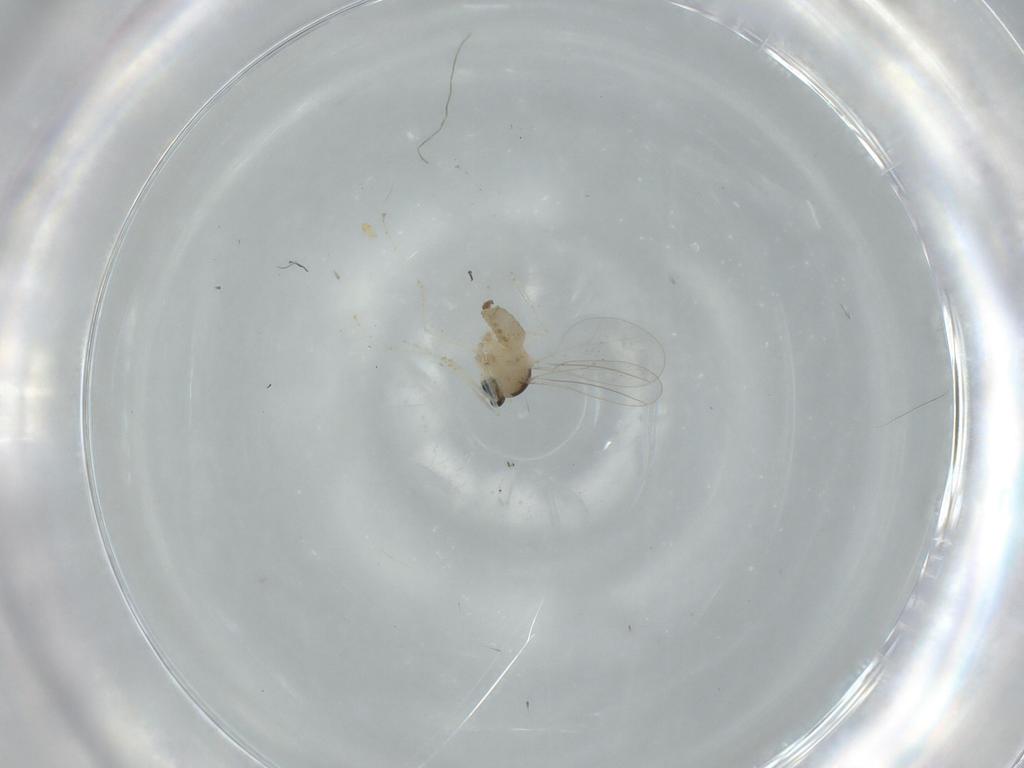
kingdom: Animalia
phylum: Arthropoda
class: Insecta
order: Diptera
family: Cecidomyiidae
